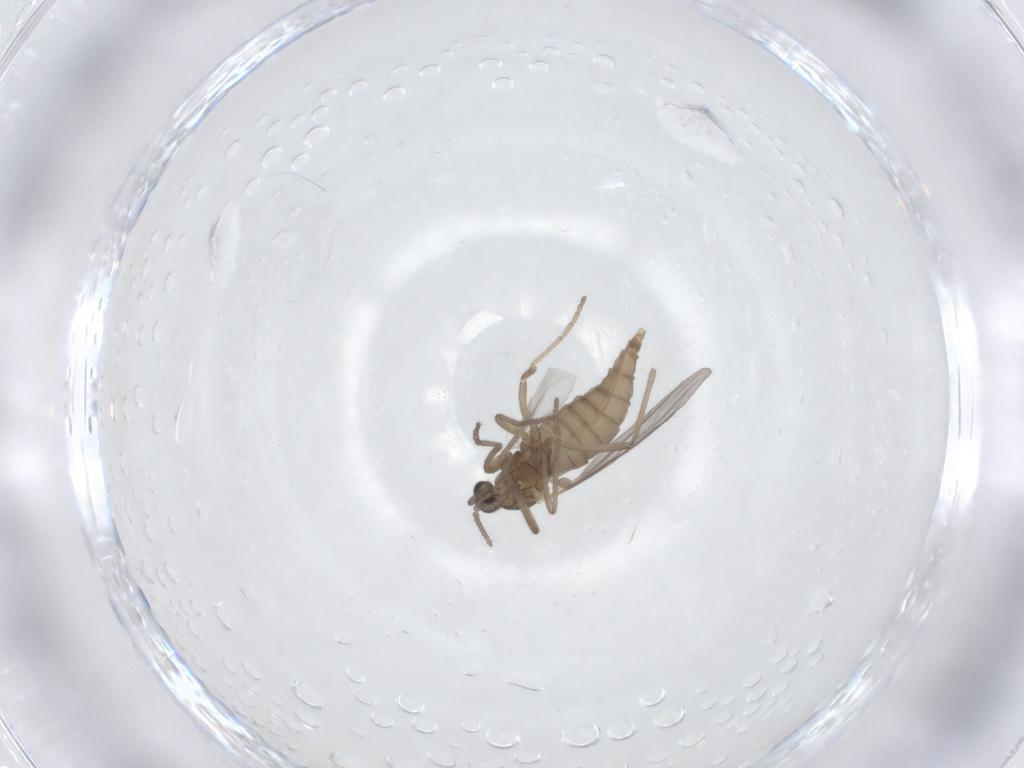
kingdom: Animalia
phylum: Arthropoda
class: Insecta
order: Diptera
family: Cecidomyiidae
